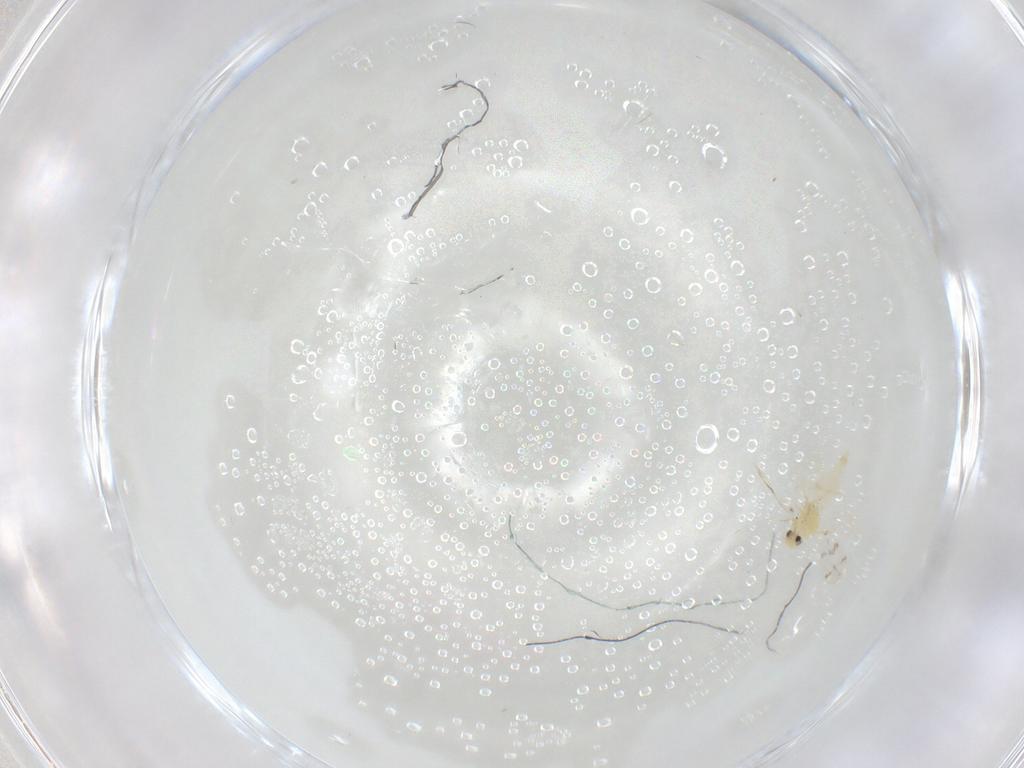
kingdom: Animalia
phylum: Arthropoda
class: Insecta
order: Hemiptera
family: Aleyrodidae
